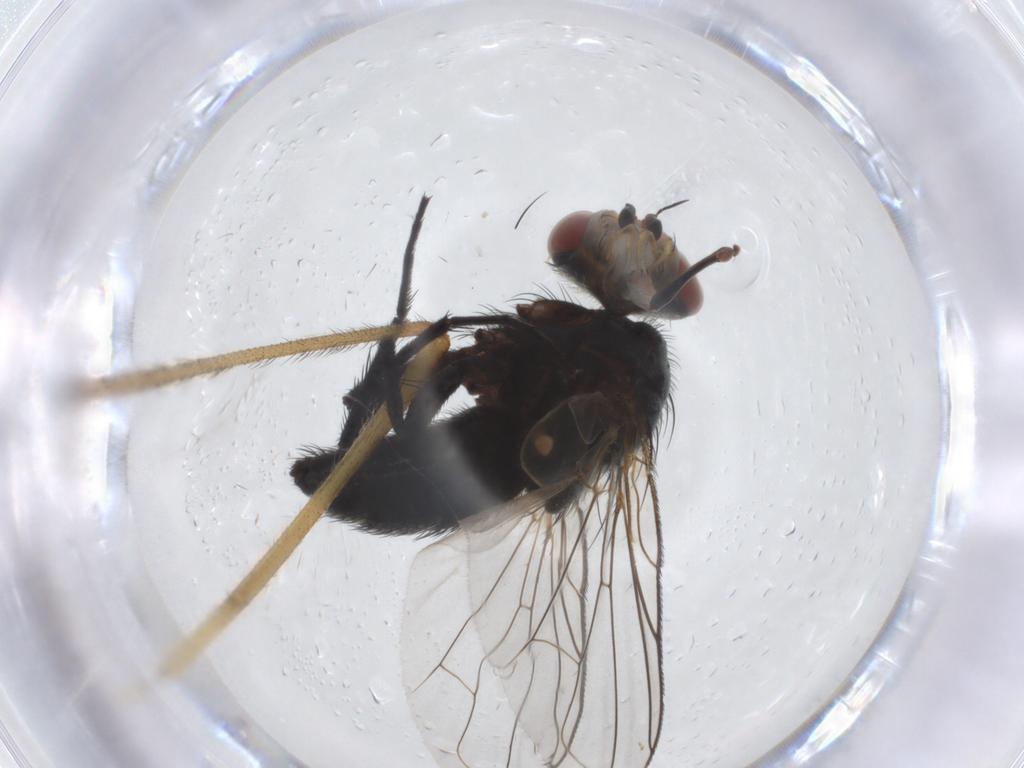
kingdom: Animalia
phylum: Arthropoda
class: Insecta
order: Diptera
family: Tachinidae
